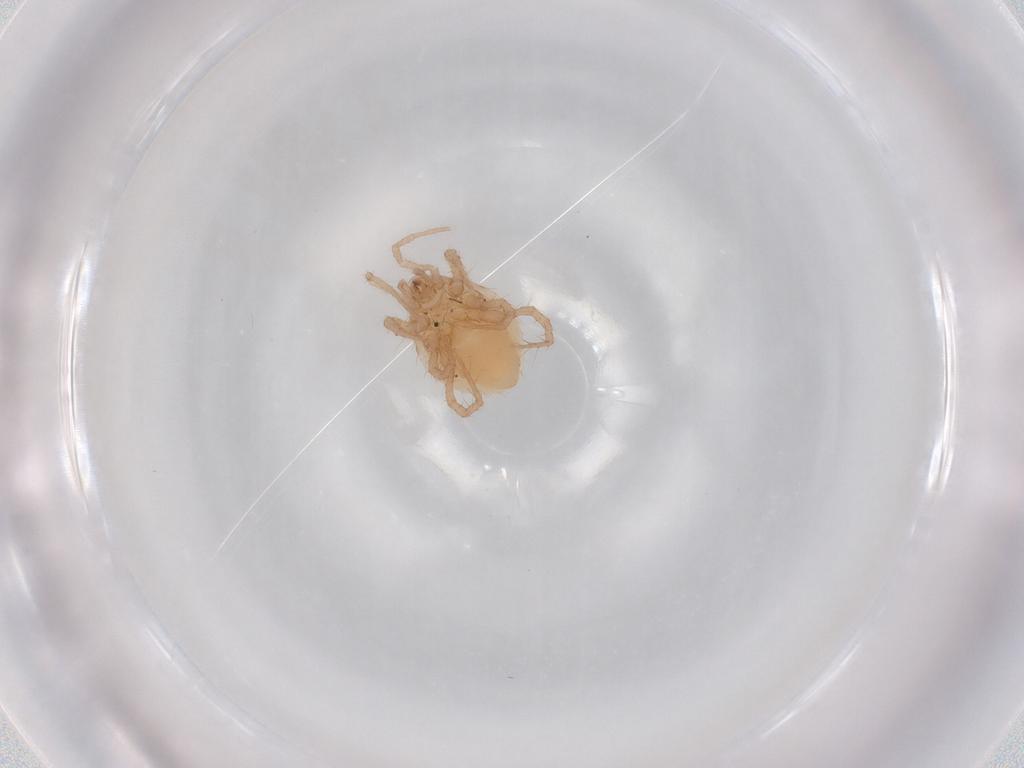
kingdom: Animalia
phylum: Arthropoda
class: Arachnida
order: Mesostigmata
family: Parasitidae
